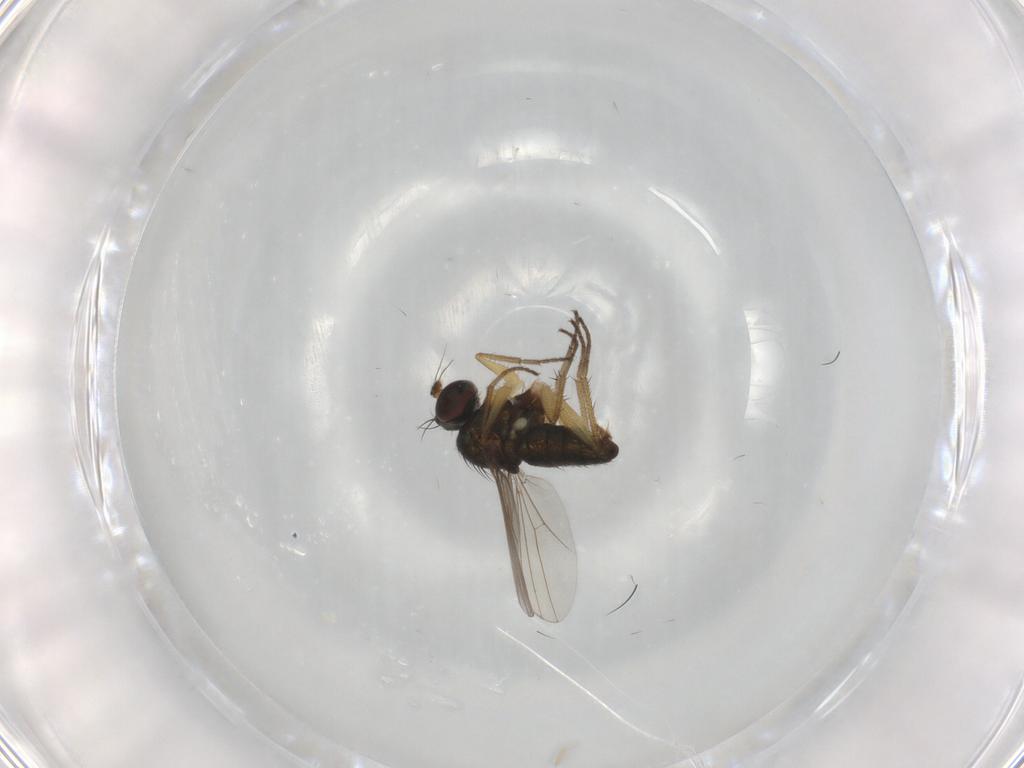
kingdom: Animalia
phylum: Arthropoda
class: Insecta
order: Diptera
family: Dolichopodidae
